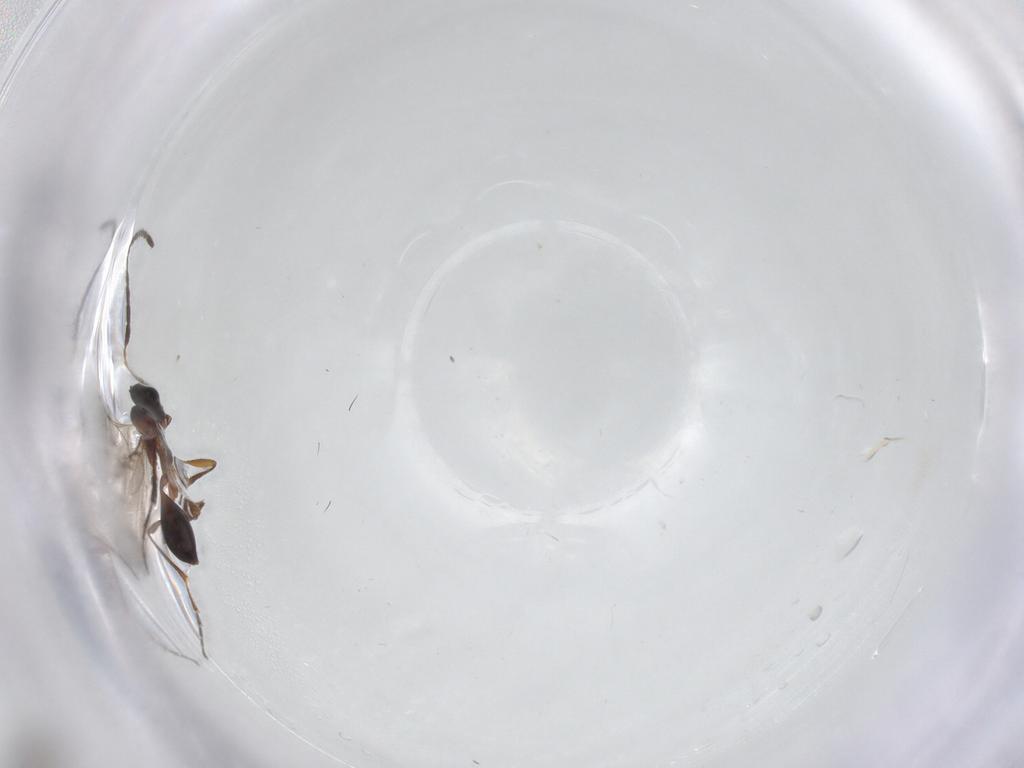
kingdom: Animalia
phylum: Arthropoda
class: Insecta
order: Hymenoptera
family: Diapriidae
